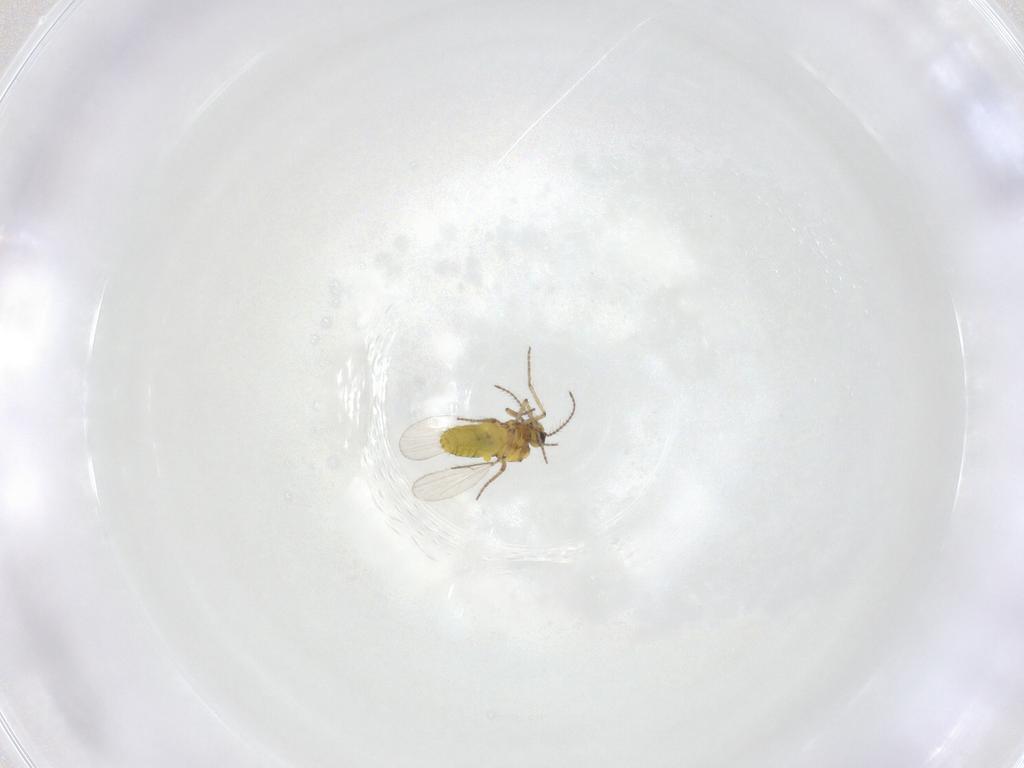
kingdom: Animalia
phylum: Arthropoda
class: Insecta
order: Diptera
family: Ceratopogonidae
